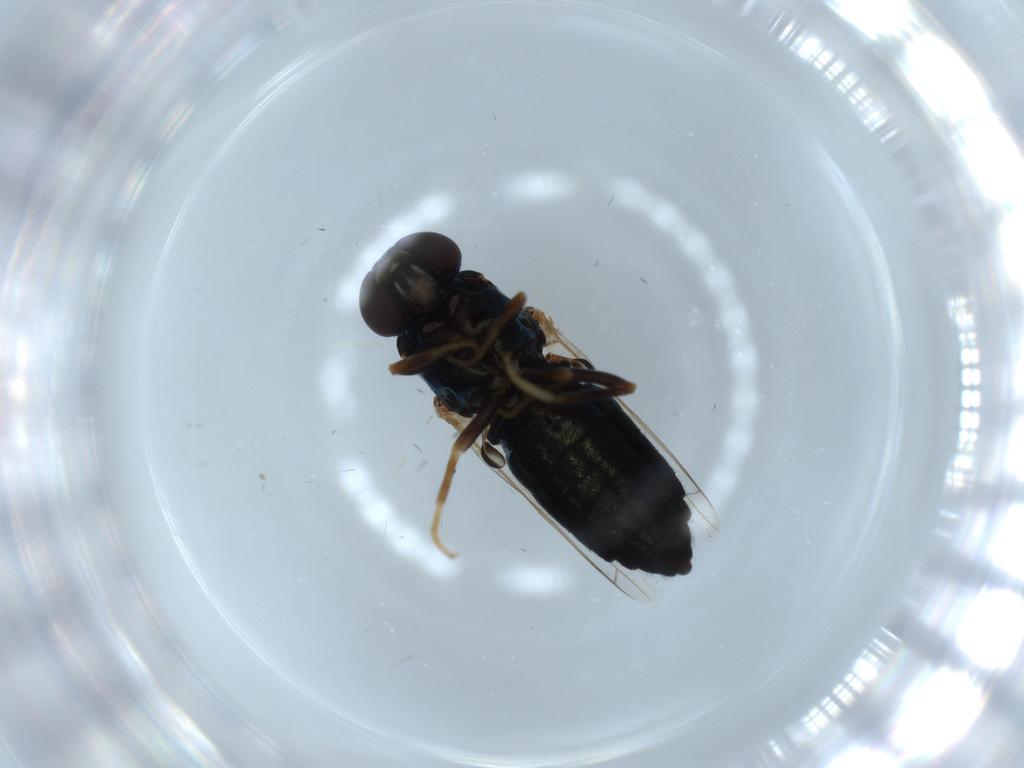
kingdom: Animalia
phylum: Arthropoda
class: Insecta
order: Diptera
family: Scenopinidae
